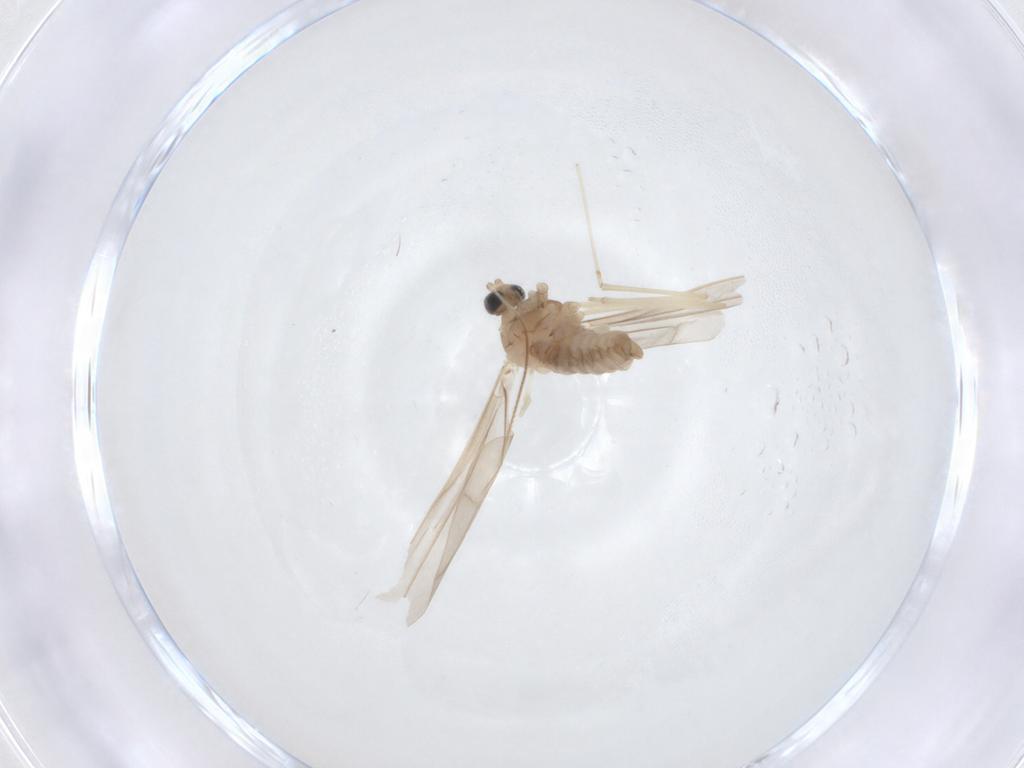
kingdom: Animalia
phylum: Arthropoda
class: Insecta
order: Diptera
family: Cecidomyiidae
